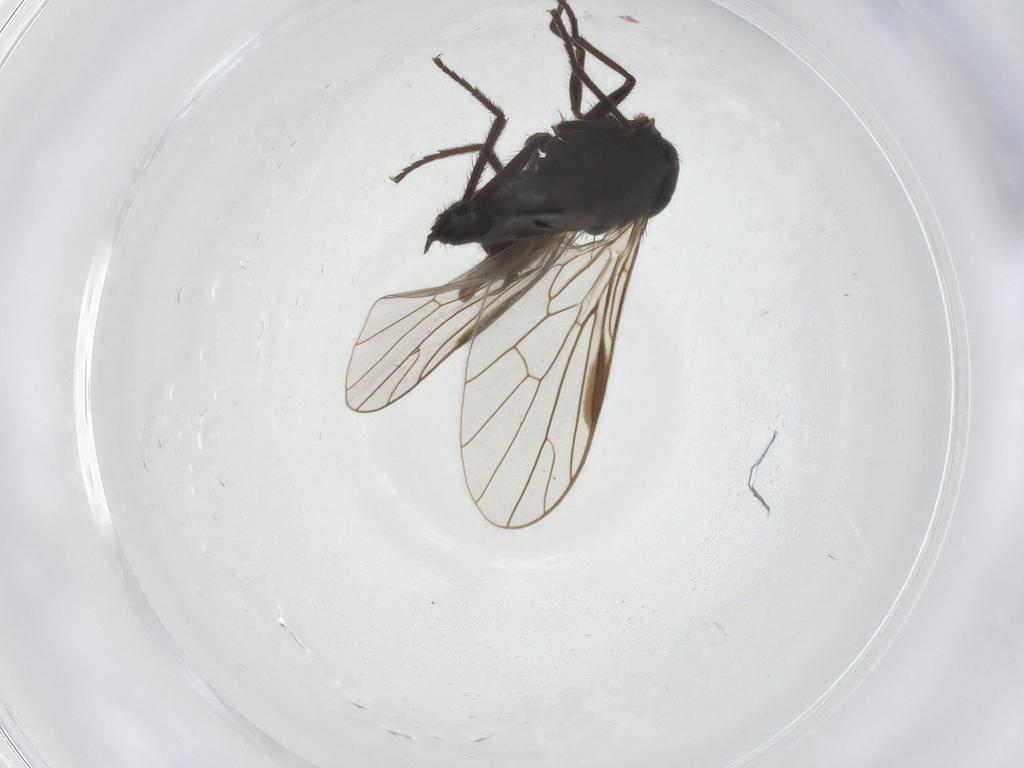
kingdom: Animalia
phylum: Arthropoda
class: Insecta
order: Diptera
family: Empididae
